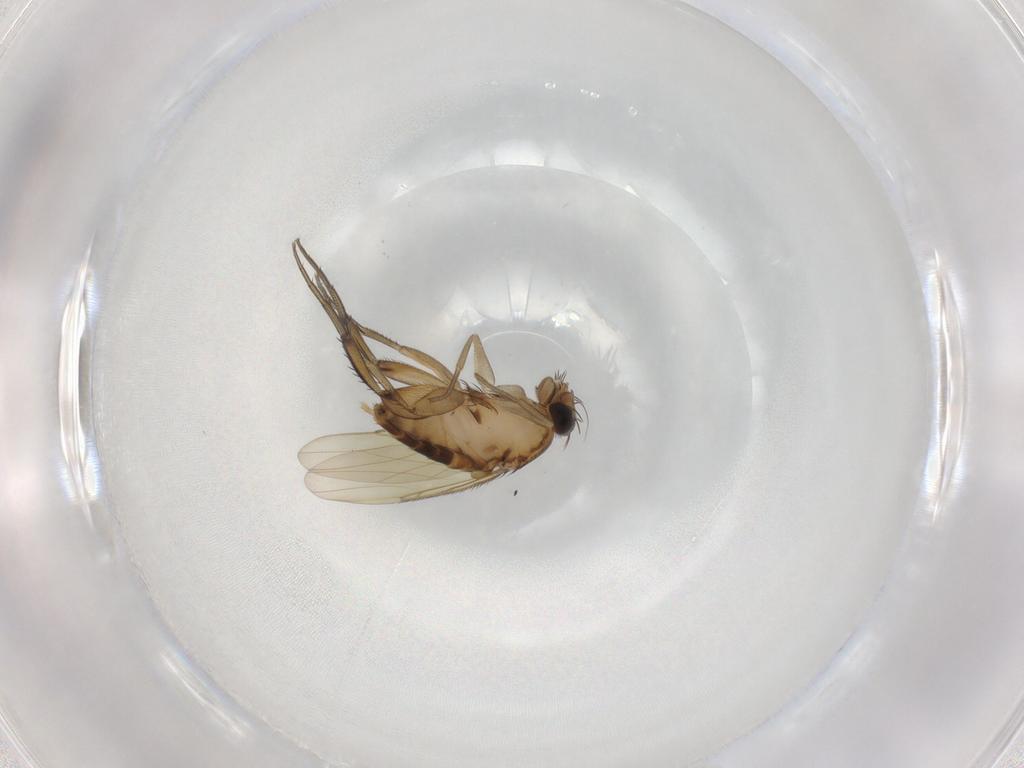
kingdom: Animalia
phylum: Arthropoda
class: Insecta
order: Diptera
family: Phoridae
